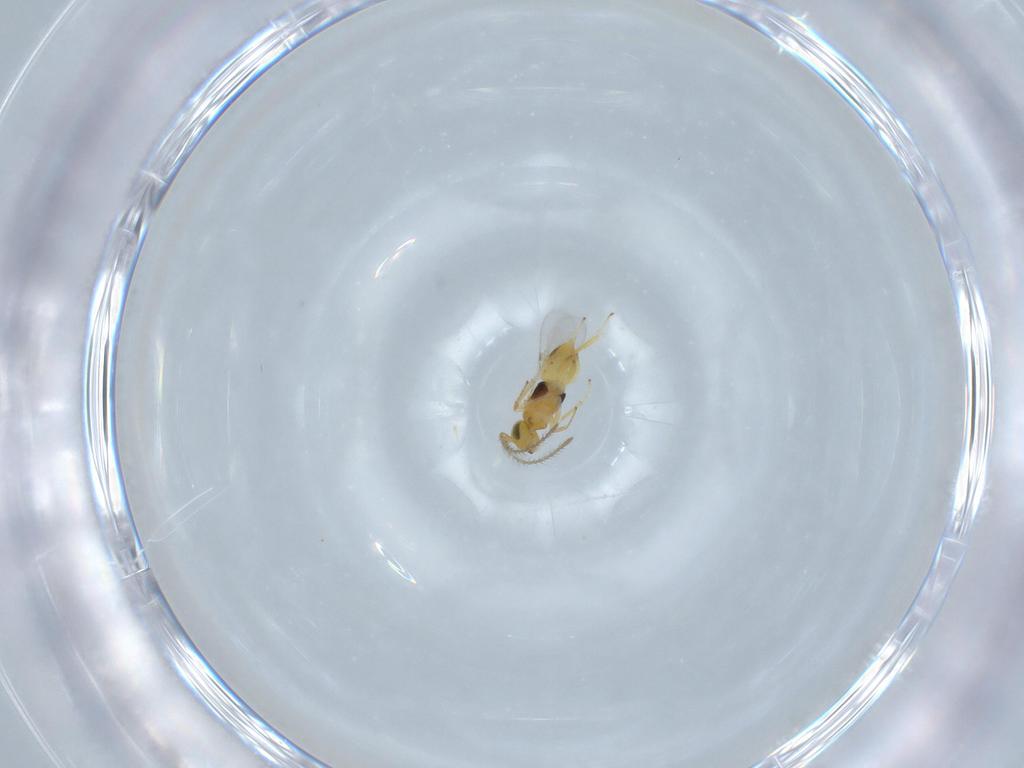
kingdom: Animalia
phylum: Arthropoda
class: Insecta
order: Hymenoptera
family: Encyrtidae
